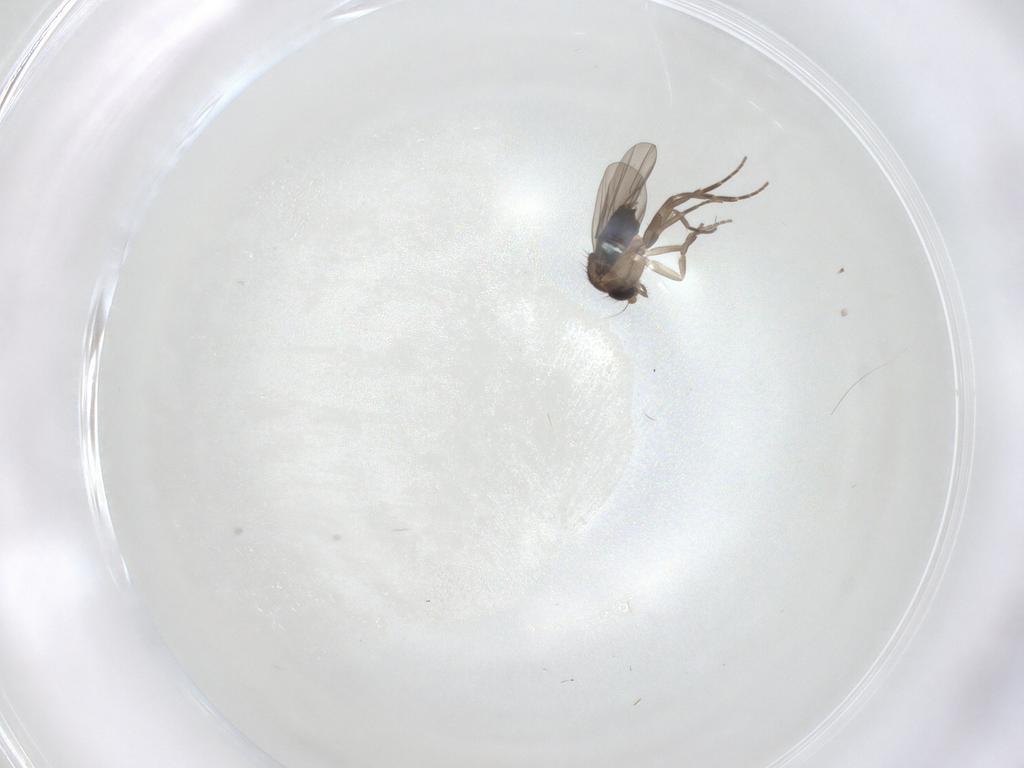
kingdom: Animalia
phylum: Arthropoda
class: Insecta
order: Diptera
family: Phoridae
